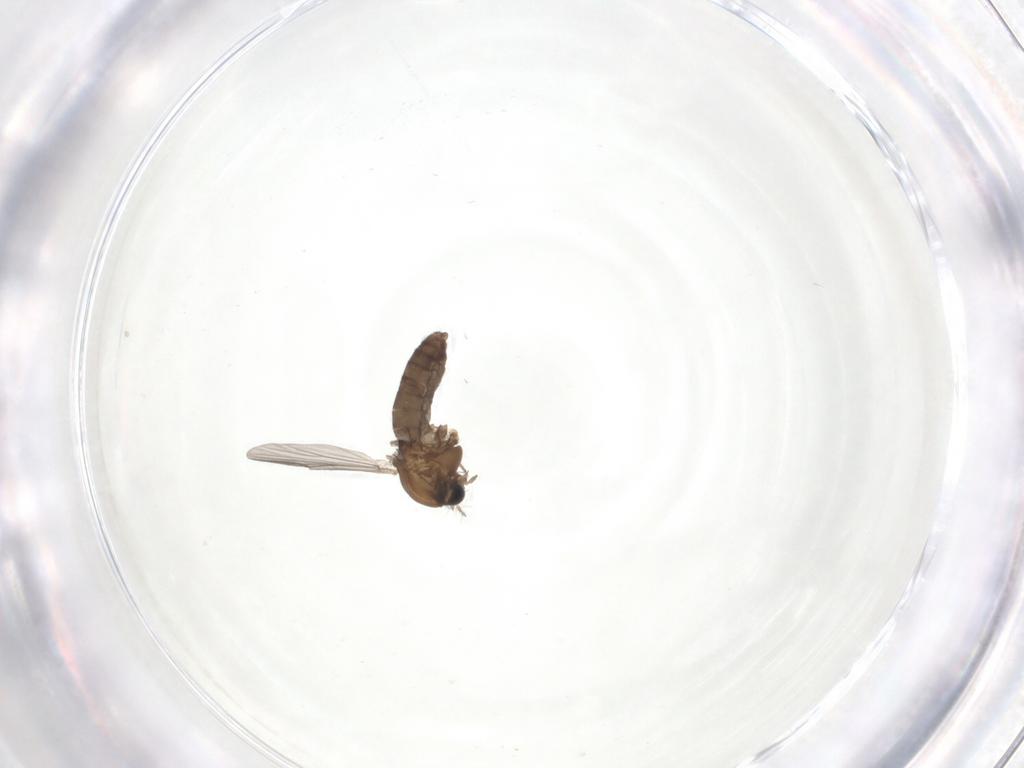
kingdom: Animalia
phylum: Arthropoda
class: Insecta
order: Diptera
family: Chironomidae
